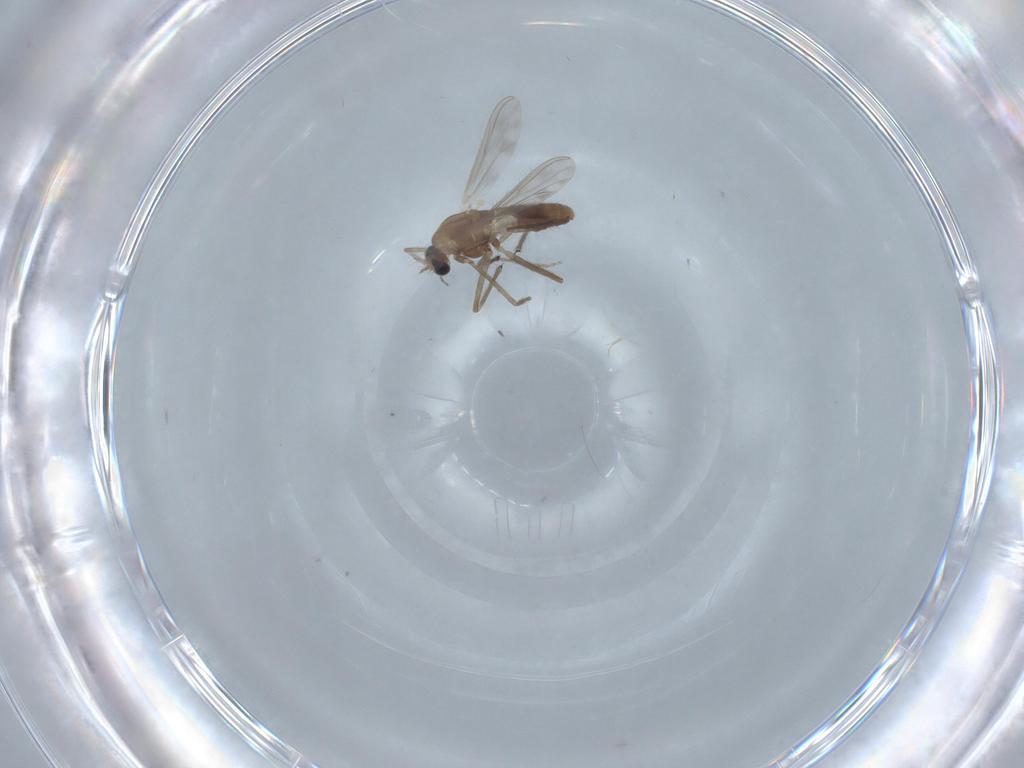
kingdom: Animalia
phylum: Arthropoda
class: Insecta
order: Diptera
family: Chironomidae
